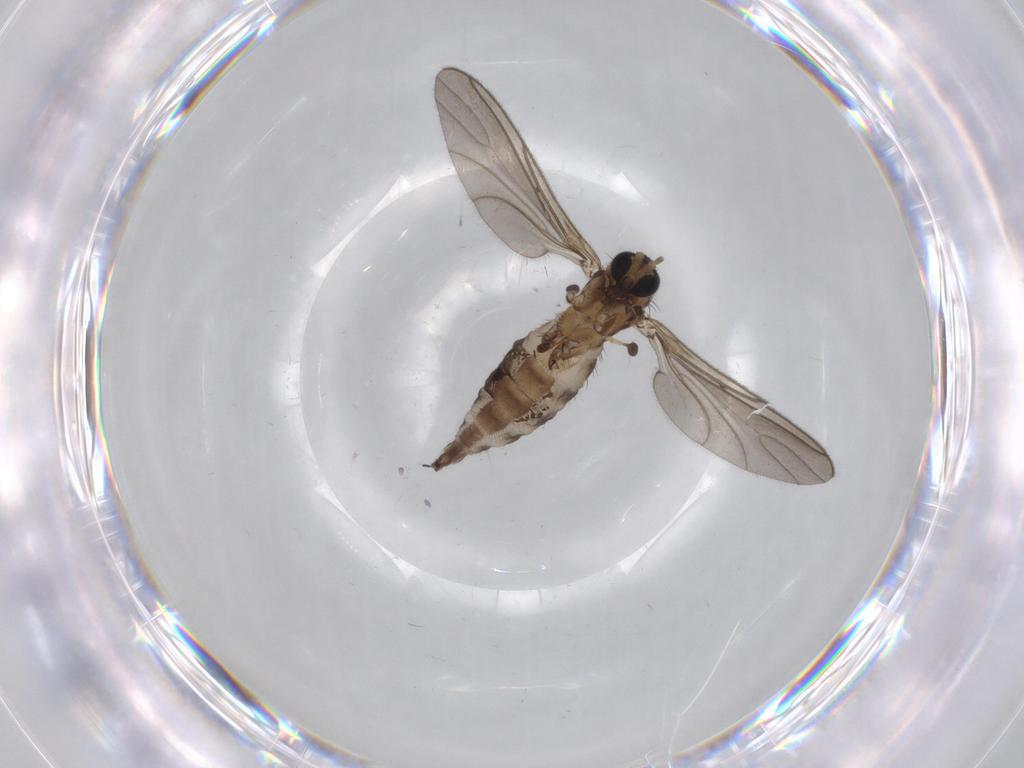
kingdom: Animalia
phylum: Arthropoda
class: Insecta
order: Diptera
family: Sciaridae
